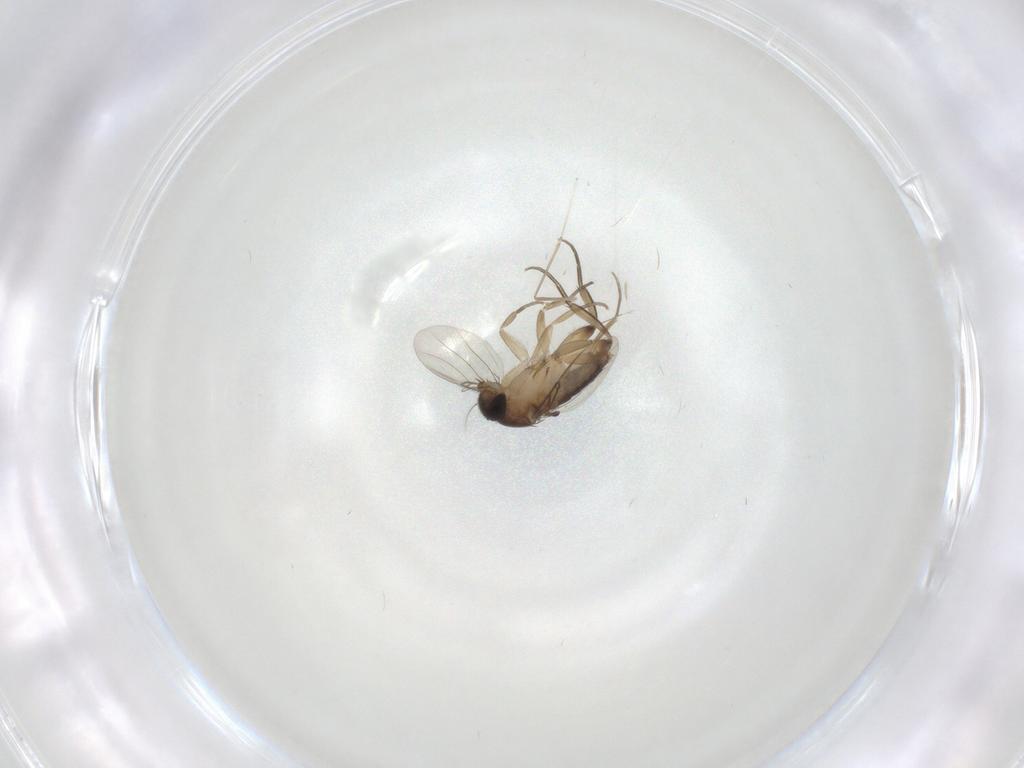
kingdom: Animalia
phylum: Arthropoda
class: Insecta
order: Diptera
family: Phoridae
